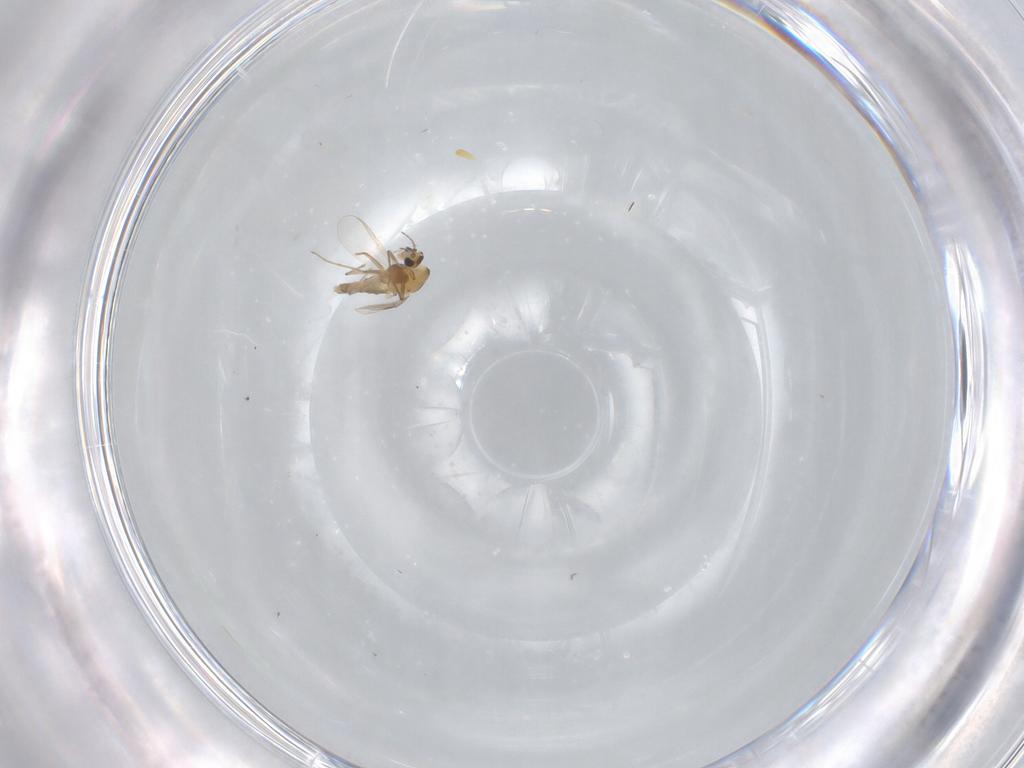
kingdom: Animalia
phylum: Arthropoda
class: Insecta
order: Diptera
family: Chironomidae
